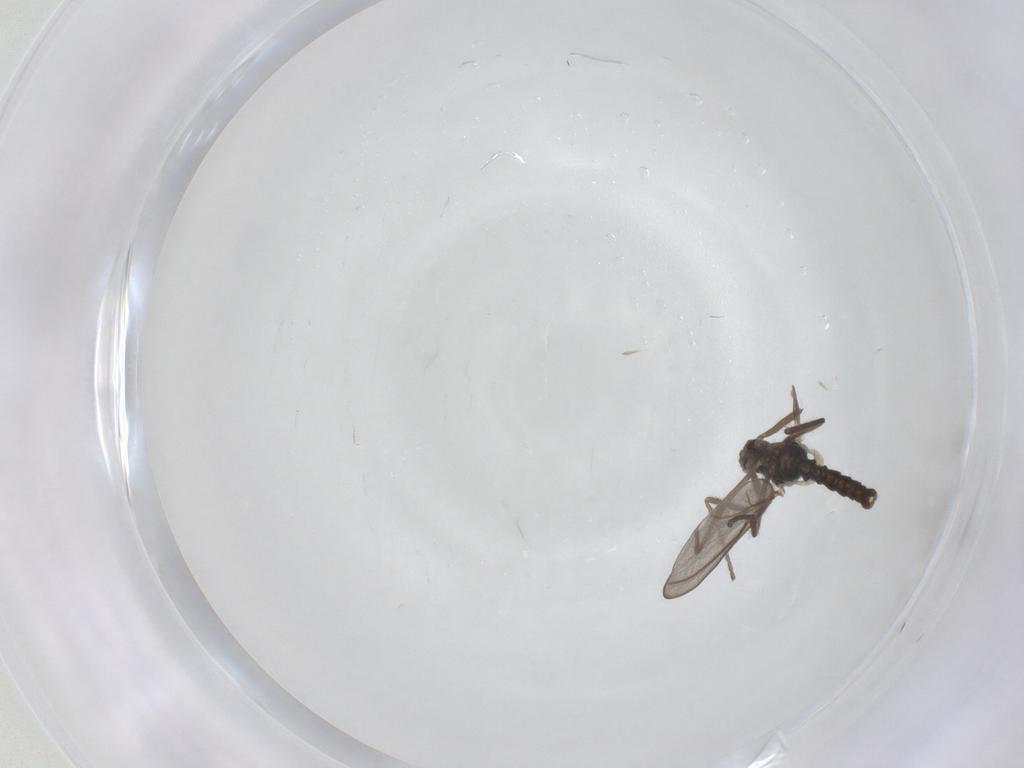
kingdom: Animalia
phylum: Arthropoda
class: Insecta
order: Diptera
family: Cecidomyiidae
